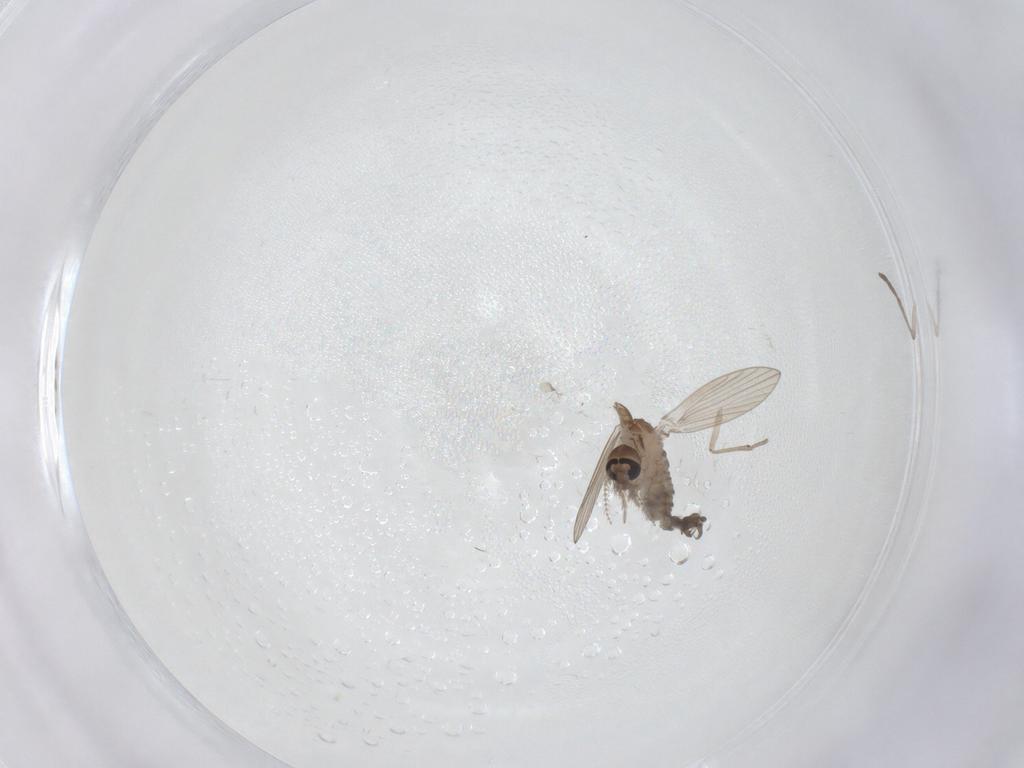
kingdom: Animalia
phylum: Arthropoda
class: Insecta
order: Diptera
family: Psychodidae
